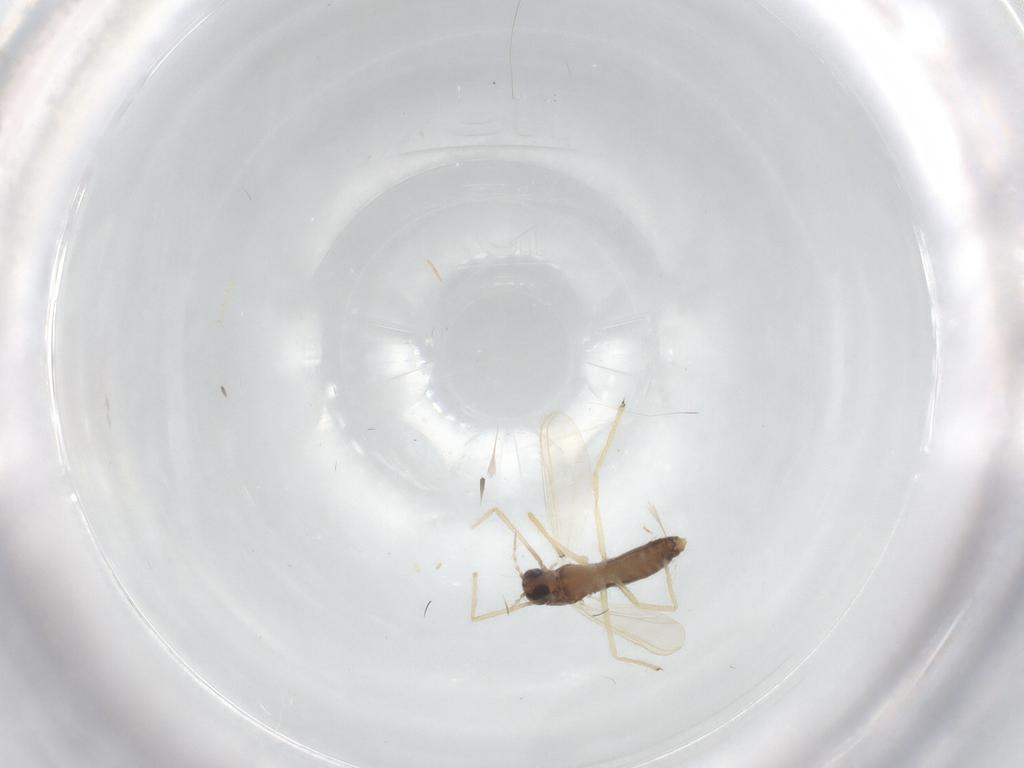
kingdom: Animalia
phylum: Arthropoda
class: Insecta
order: Diptera
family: Chironomidae
